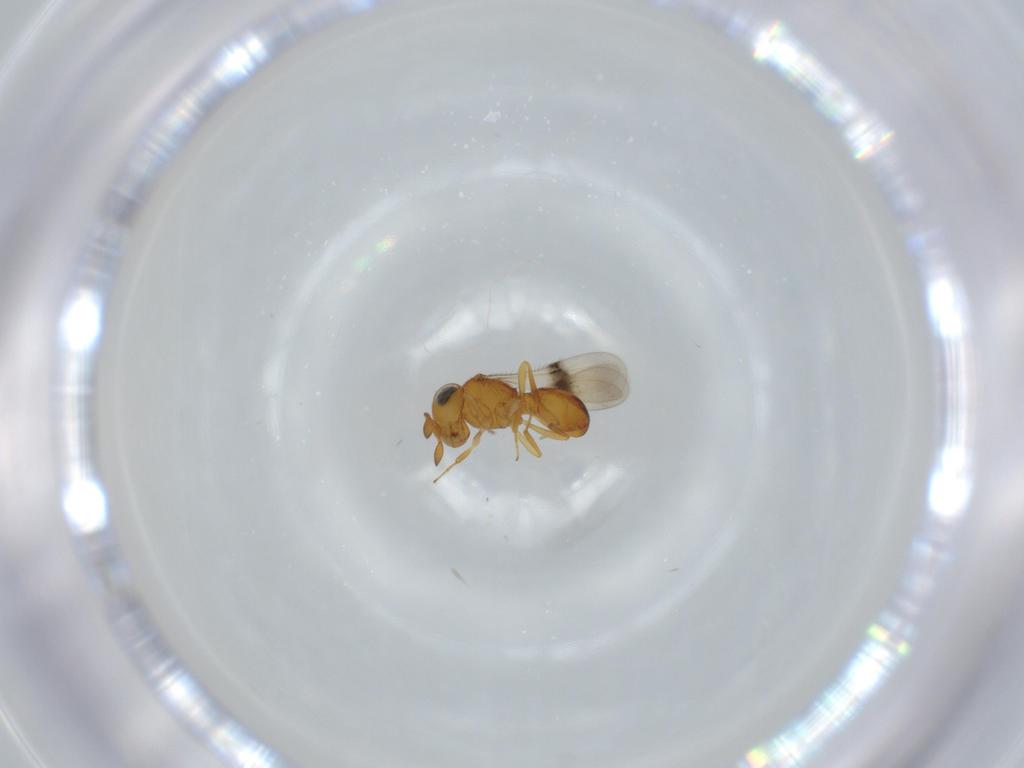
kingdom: Animalia
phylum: Arthropoda
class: Insecta
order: Hymenoptera
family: Scelionidae
